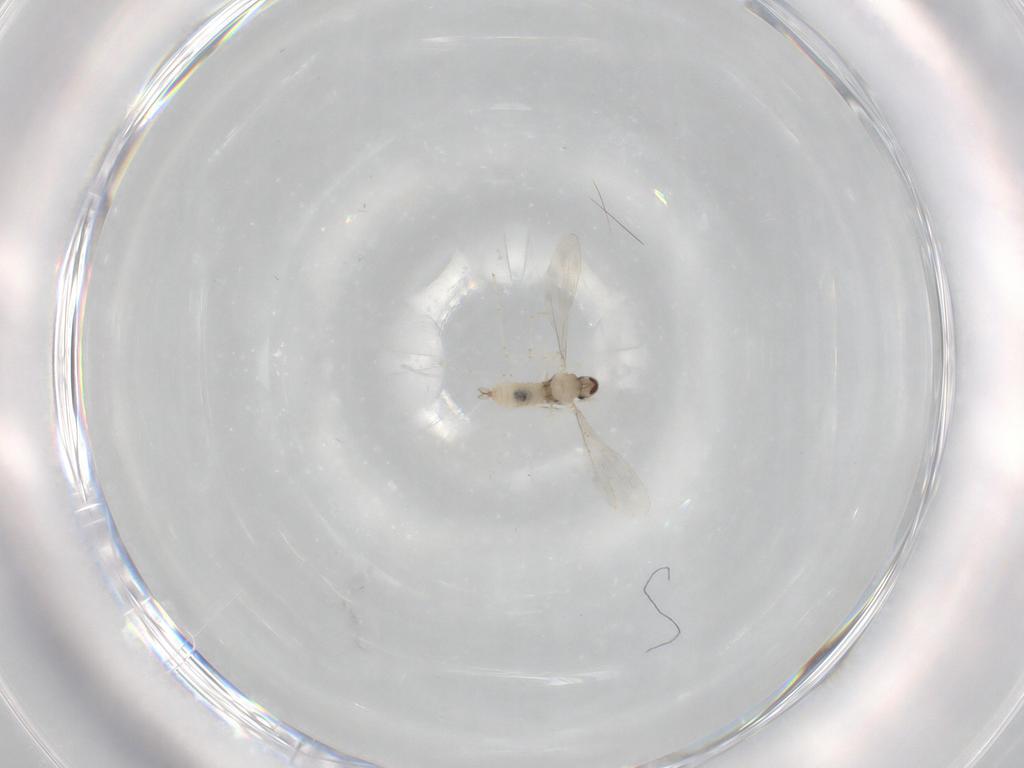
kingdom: Animalia
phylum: Arthropoda
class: Insecta
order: Diptera
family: Cecidomyiidae
